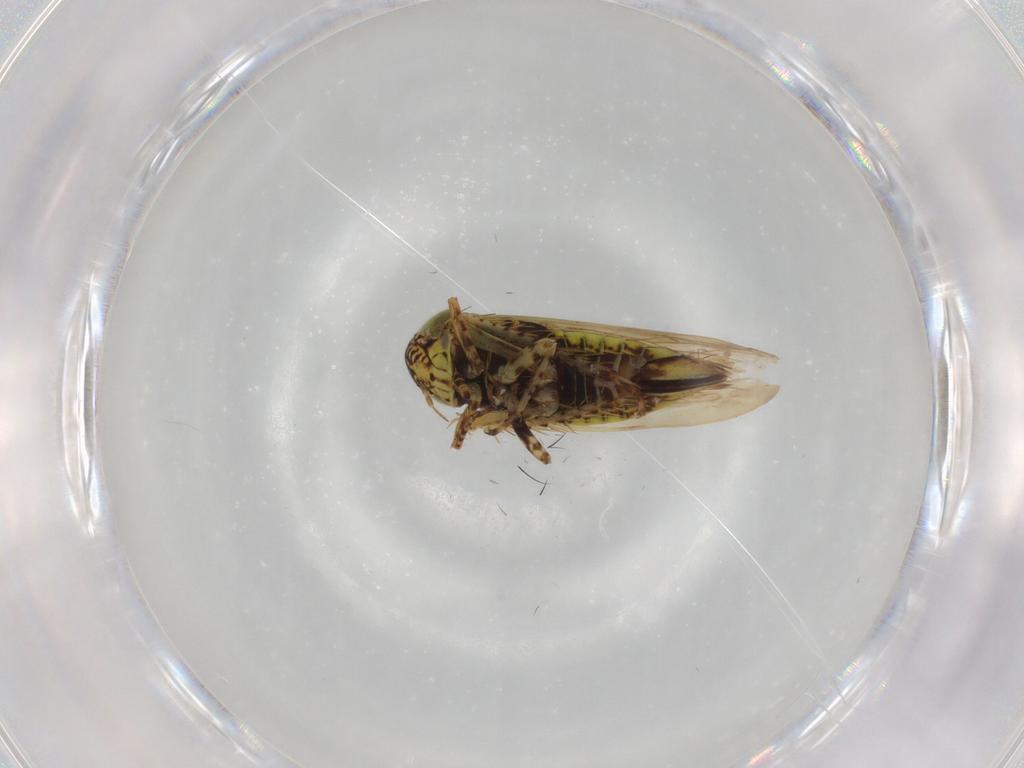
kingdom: Animalia
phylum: Arthropoda
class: Insecta
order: Hemiptera
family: Cicadellidae
